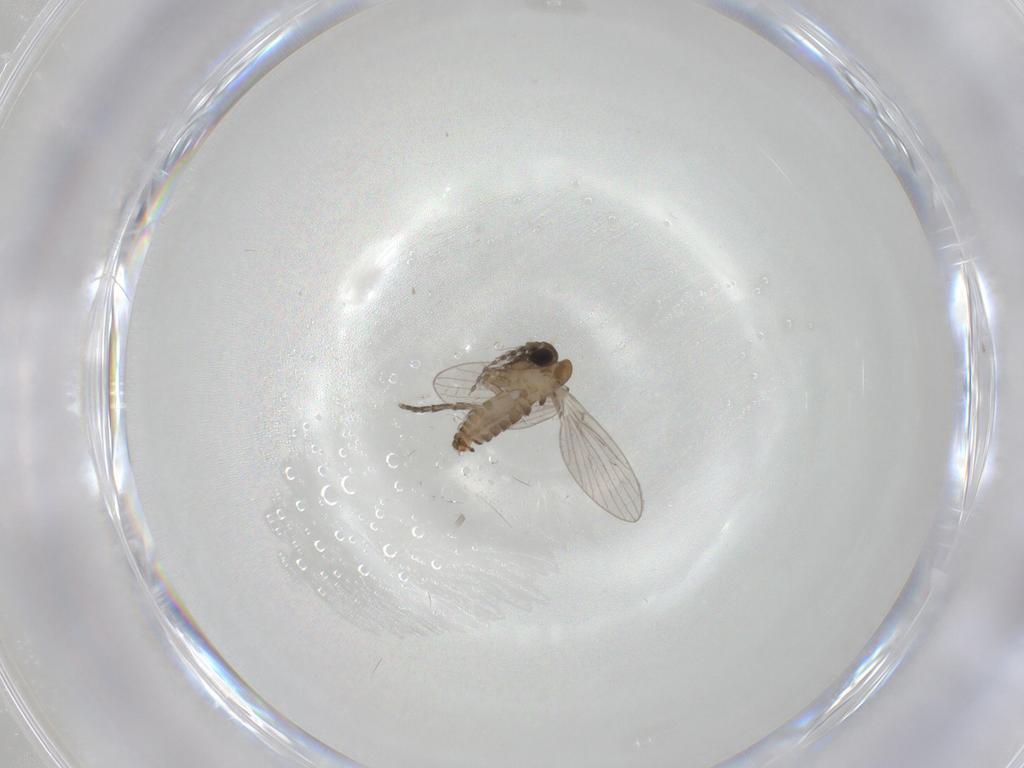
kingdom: Animalia
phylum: Arthropoda
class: Insecta
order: Diptera
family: Psychodidae
